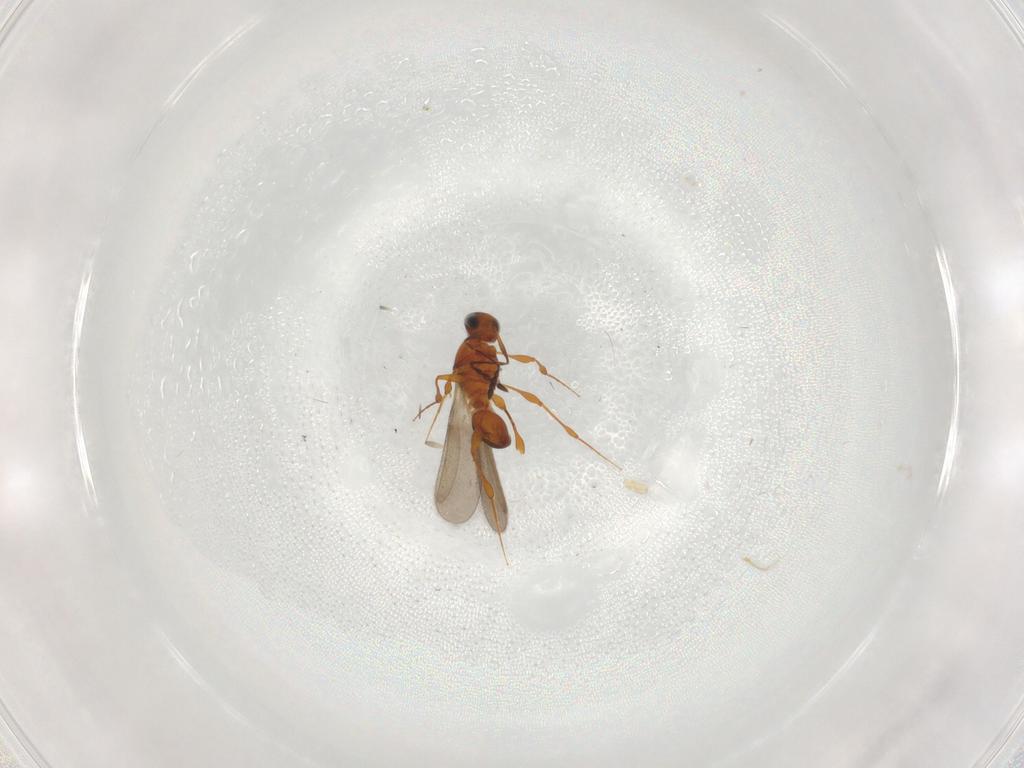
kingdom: Animalia
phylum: Arthropoda
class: Insecta
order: Hymenoptera
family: Platygastridae
